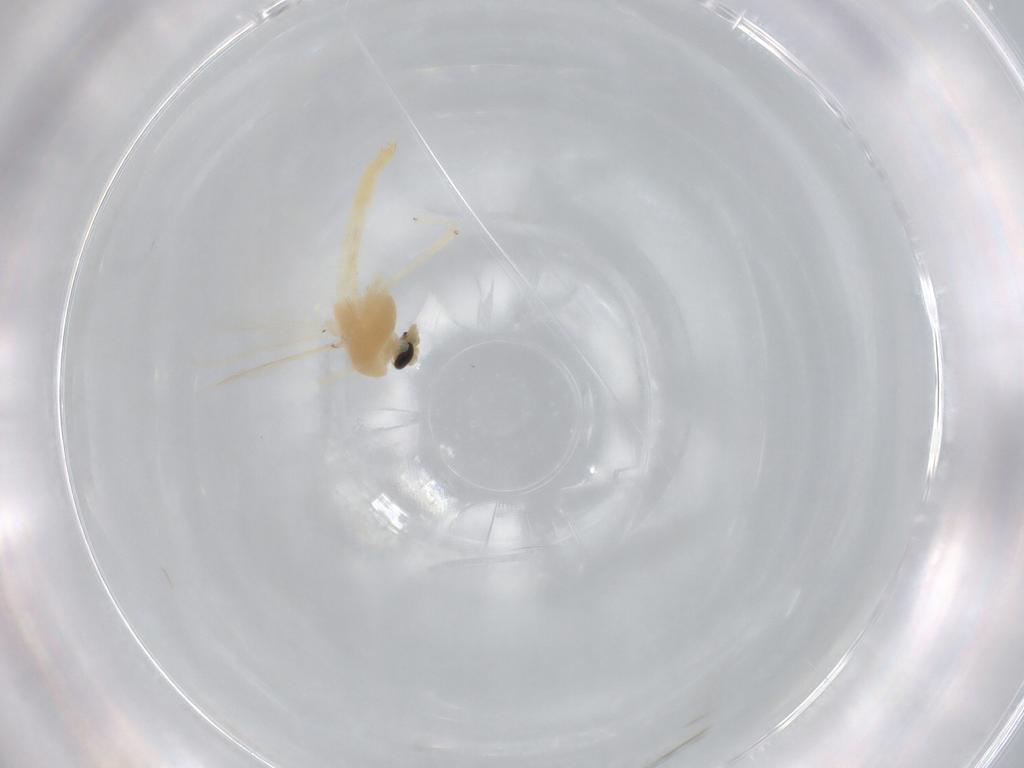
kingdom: Animalia
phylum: Arthropoda
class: Insecta
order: Diptera
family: Chironomidae
